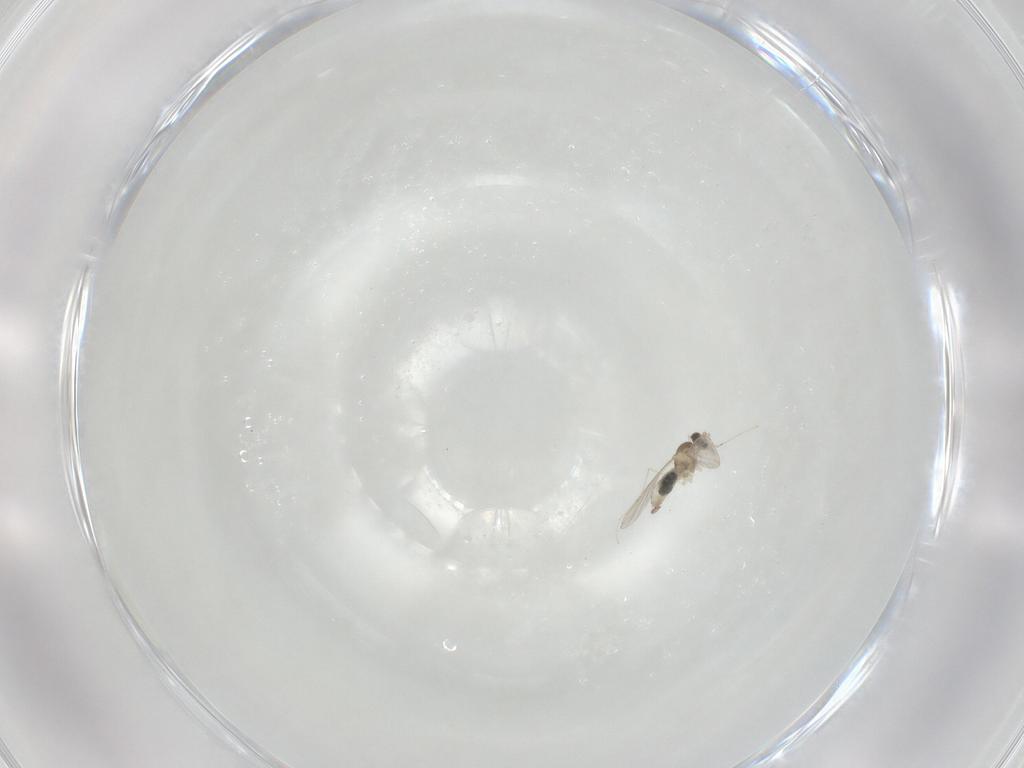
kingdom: Animalia
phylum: Arthropoda
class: Insecta
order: Diptera
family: Cecidomyiidae
